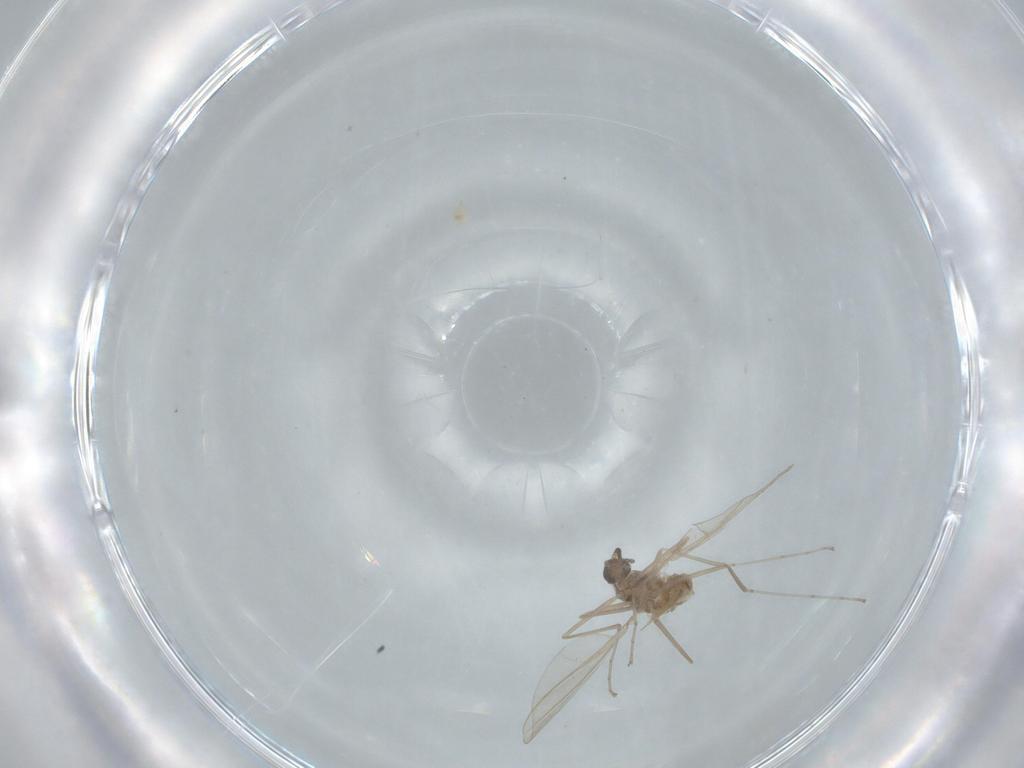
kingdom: Animalia
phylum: Arthropoda
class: Insecta
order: Diptera
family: Cecidomyiidae
